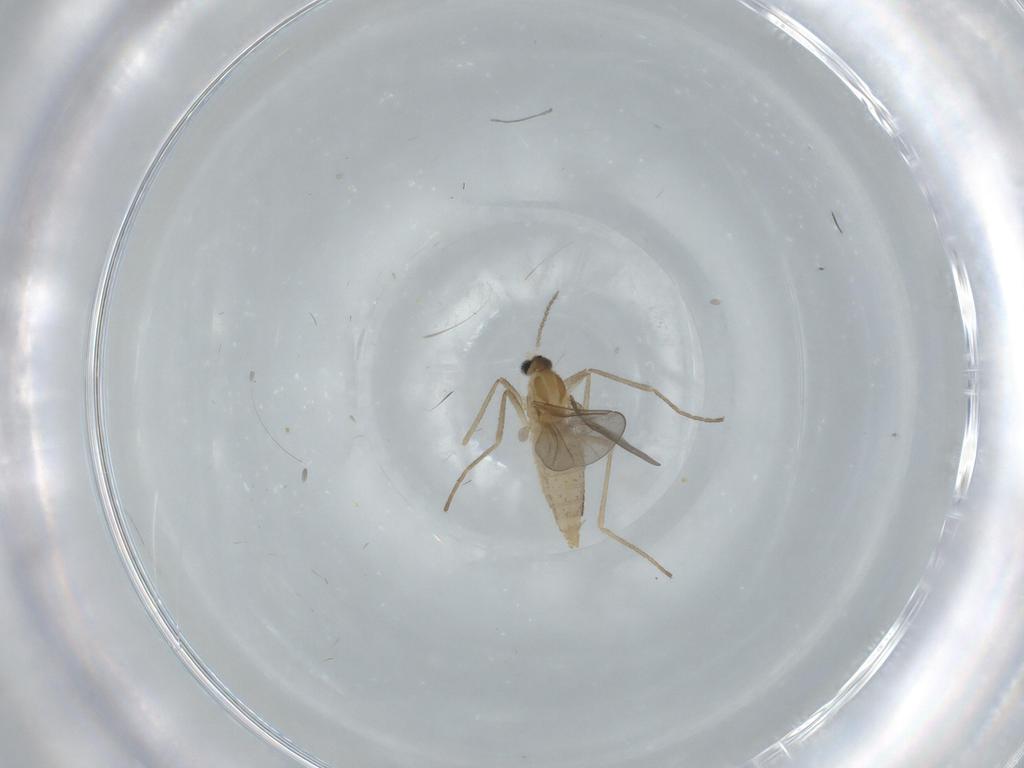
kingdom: Animalia
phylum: Arthropoda
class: Insecta
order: Diptera
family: Cecidomyiidae
